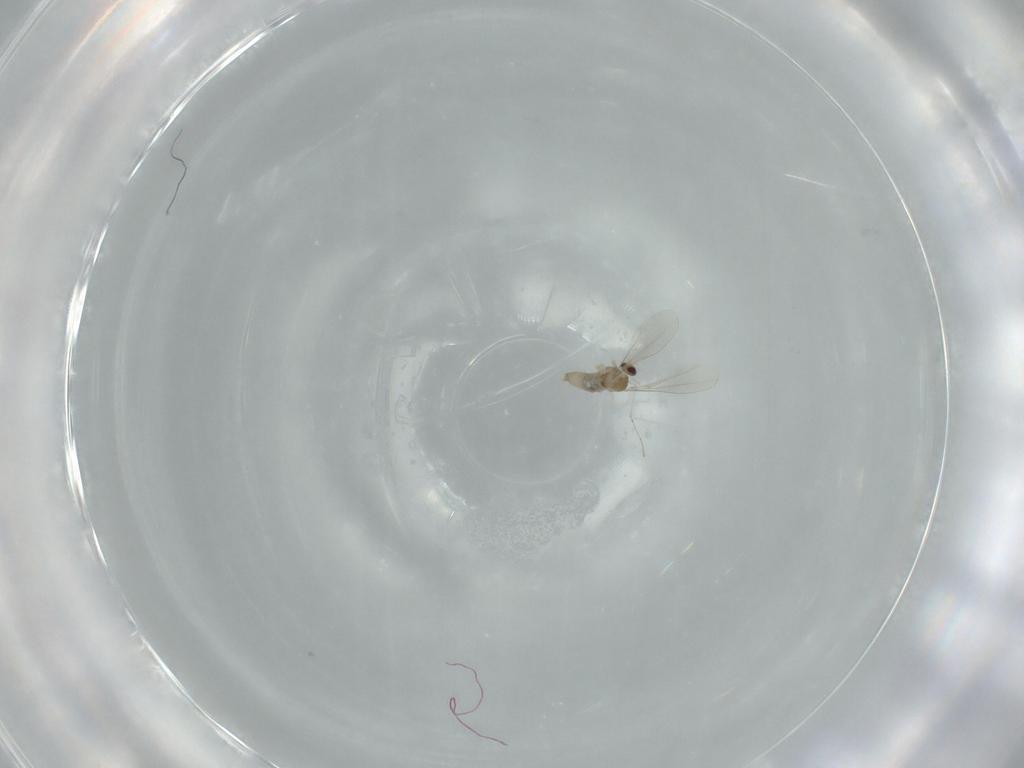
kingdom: Animalia
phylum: Arthropoda
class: Insecta
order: Diptera
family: Cecidomyiidae
